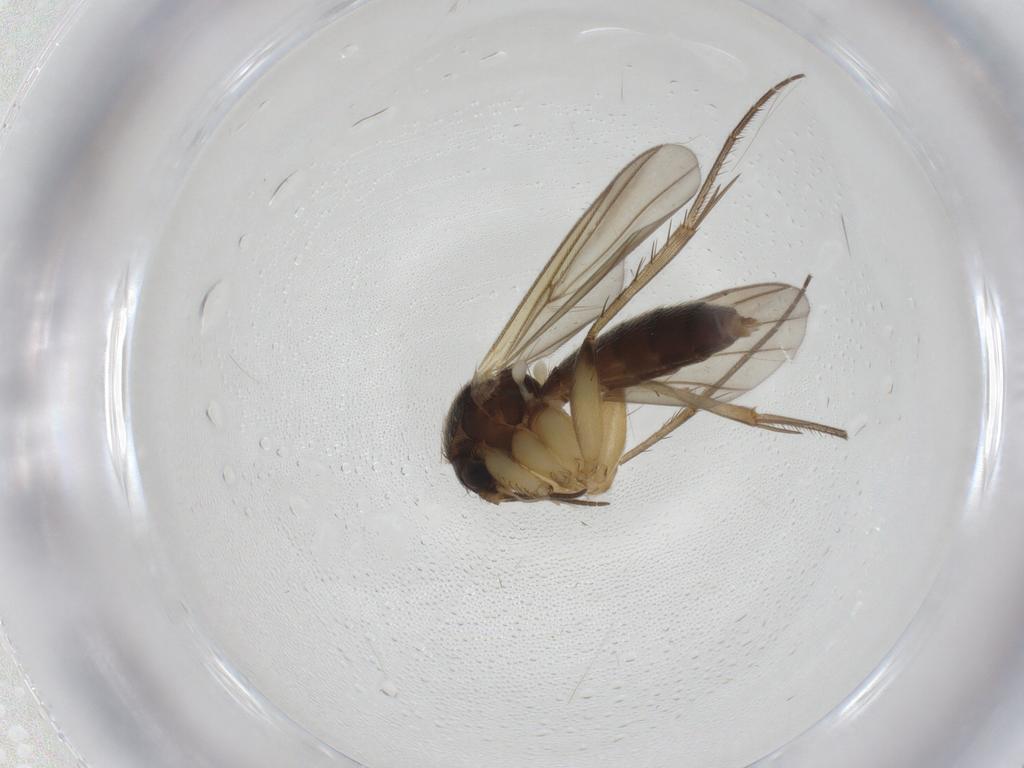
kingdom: Animalia
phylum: Arthropoda
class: Insecta
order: Diptera
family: Mycetophilidae
